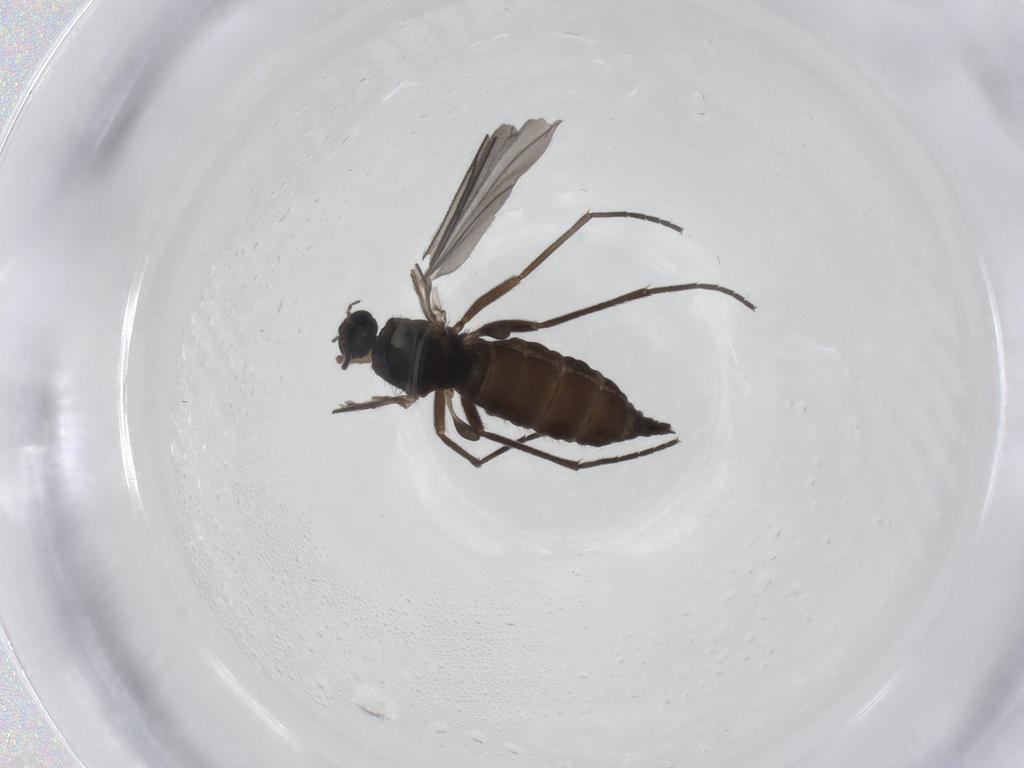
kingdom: Animalia
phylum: Arthropoda
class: Insecta
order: Diptera
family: Sciaridae
